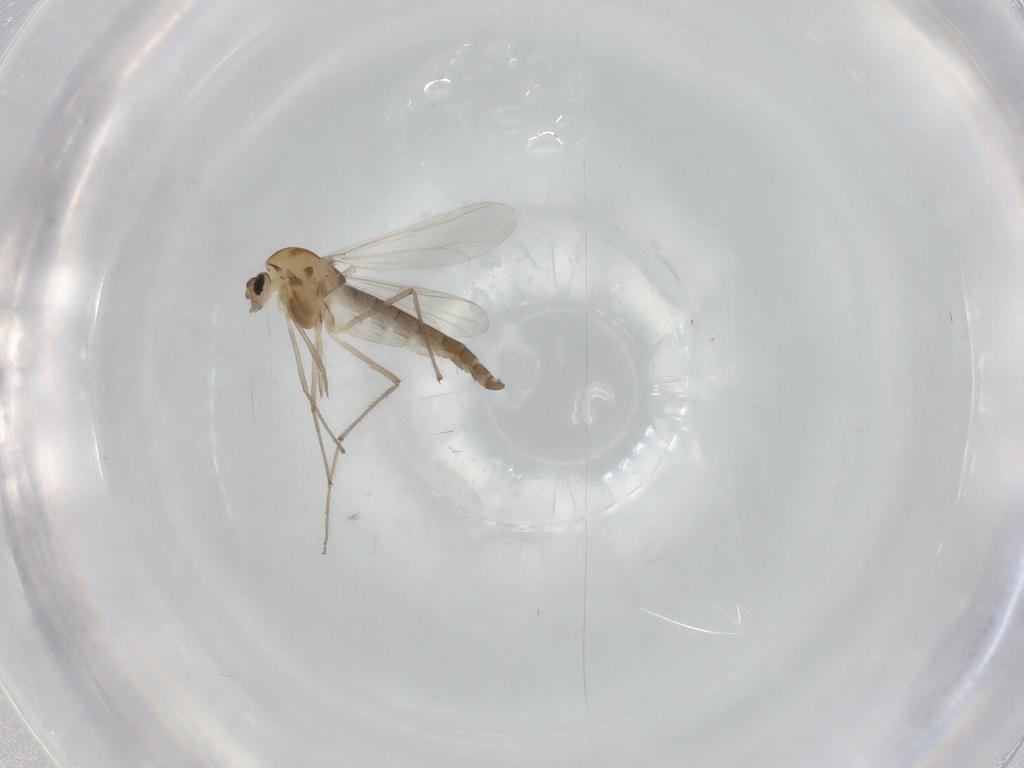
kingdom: Animalia
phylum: Arthropoda
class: Insecta
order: Diptera
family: Chironomidae
